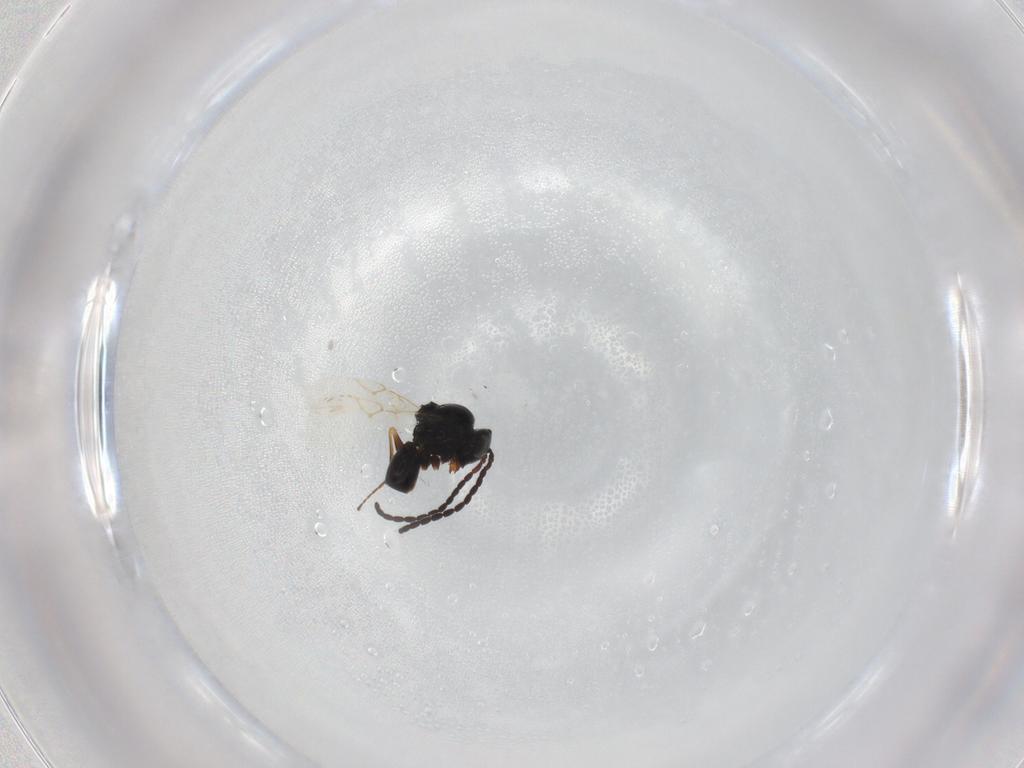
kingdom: Animalia
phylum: Arthropoda
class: Insecta
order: Hymenoptera
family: Figitidae
